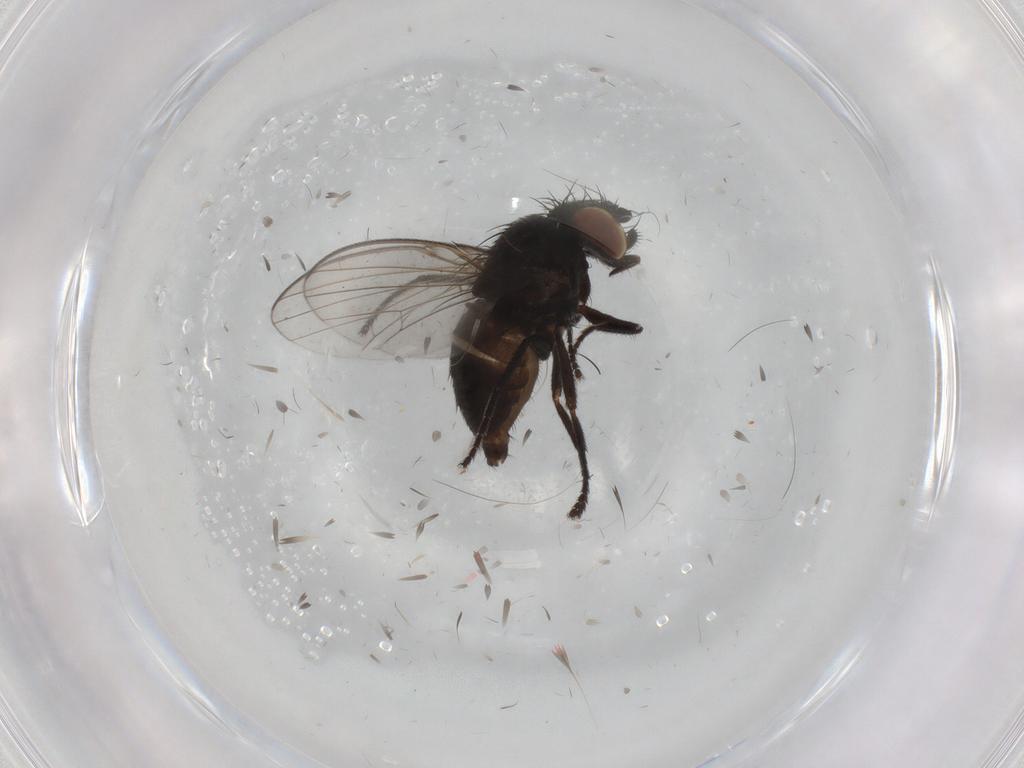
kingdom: Animalia
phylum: Arthropoda
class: Insecta
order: Diptera
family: Milichiidae
